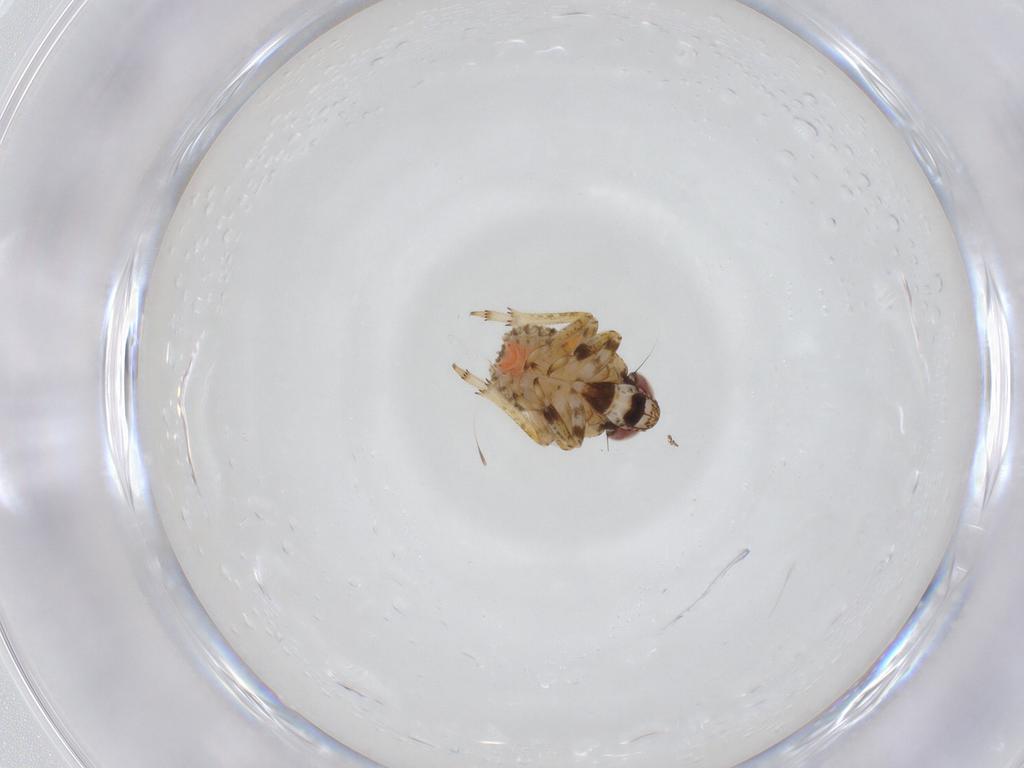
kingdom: Animalia
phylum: Arthropoda
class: Insecta
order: Hemiptera
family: Issidae
